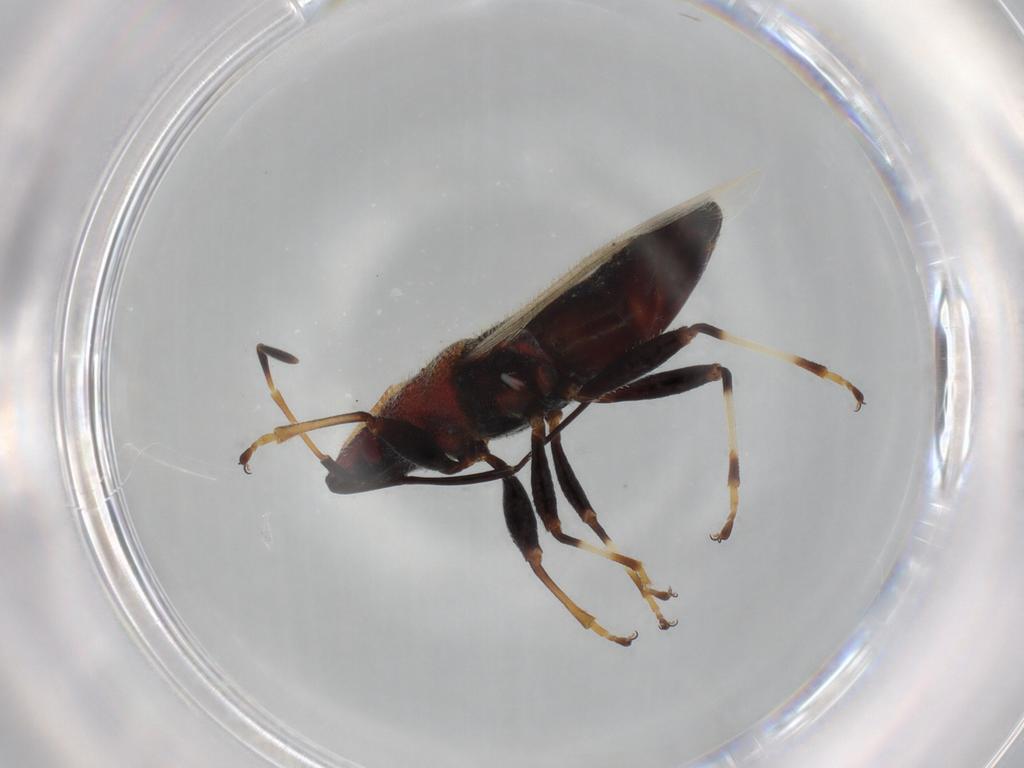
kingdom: Animalia
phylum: Arthropoda
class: Insecta
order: Hemiptera
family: Oxycarenidae
